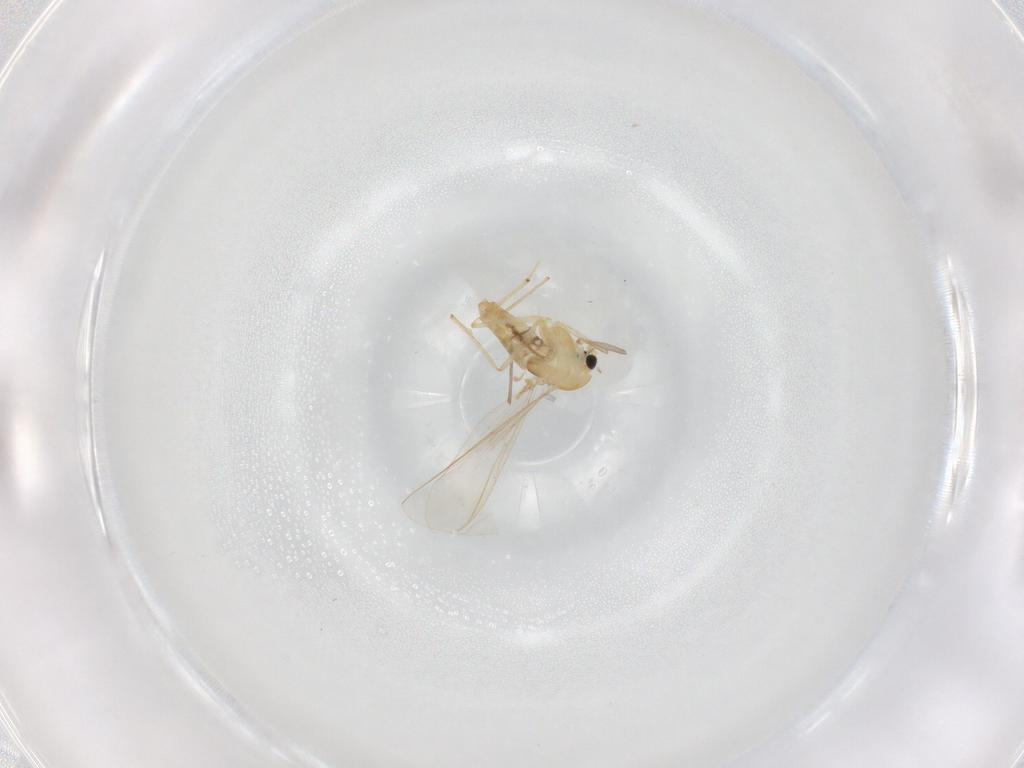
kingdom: Animalia
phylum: Arthropoda
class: Insecta
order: Diptera
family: Chironomidae
